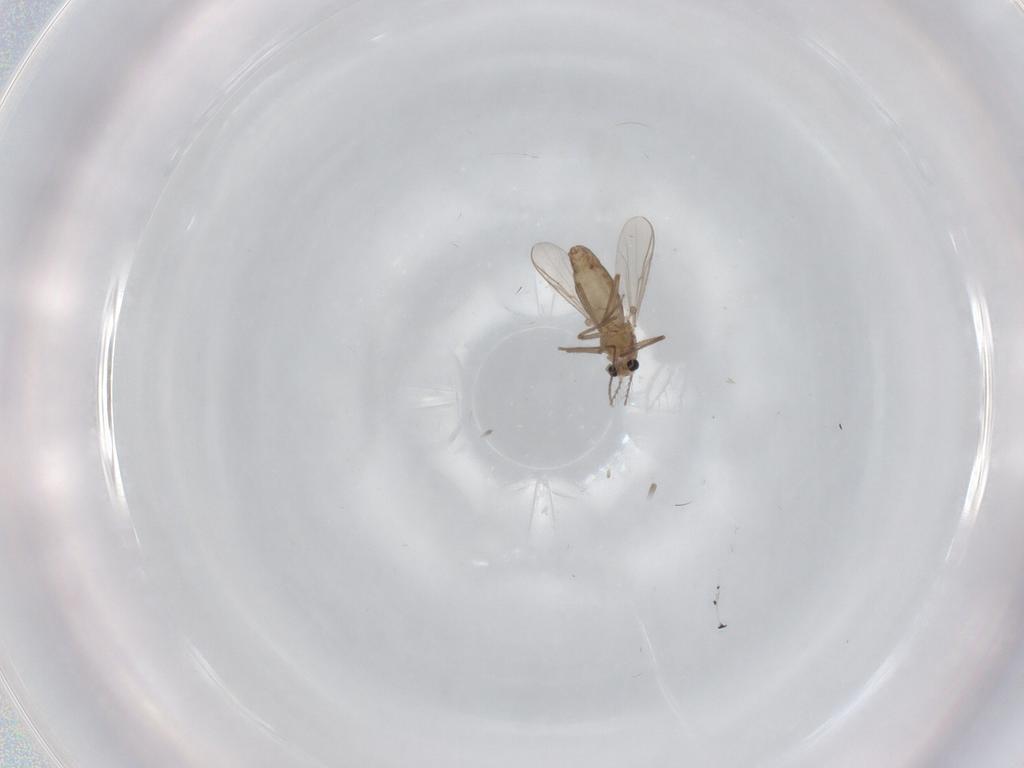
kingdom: Animalia
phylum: Arthropoda
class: Insecta
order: Diptera
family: Chironomidae
